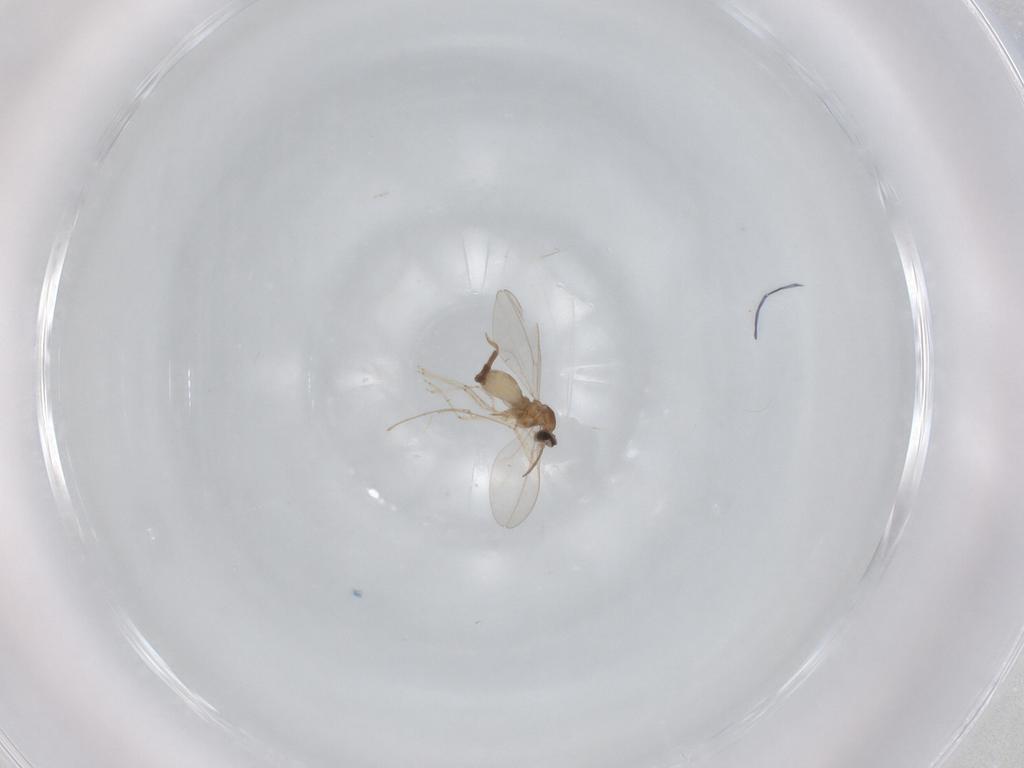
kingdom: Animalia
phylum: Arthropoda
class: Insecta
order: Diptera
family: Cecidomyiidae
